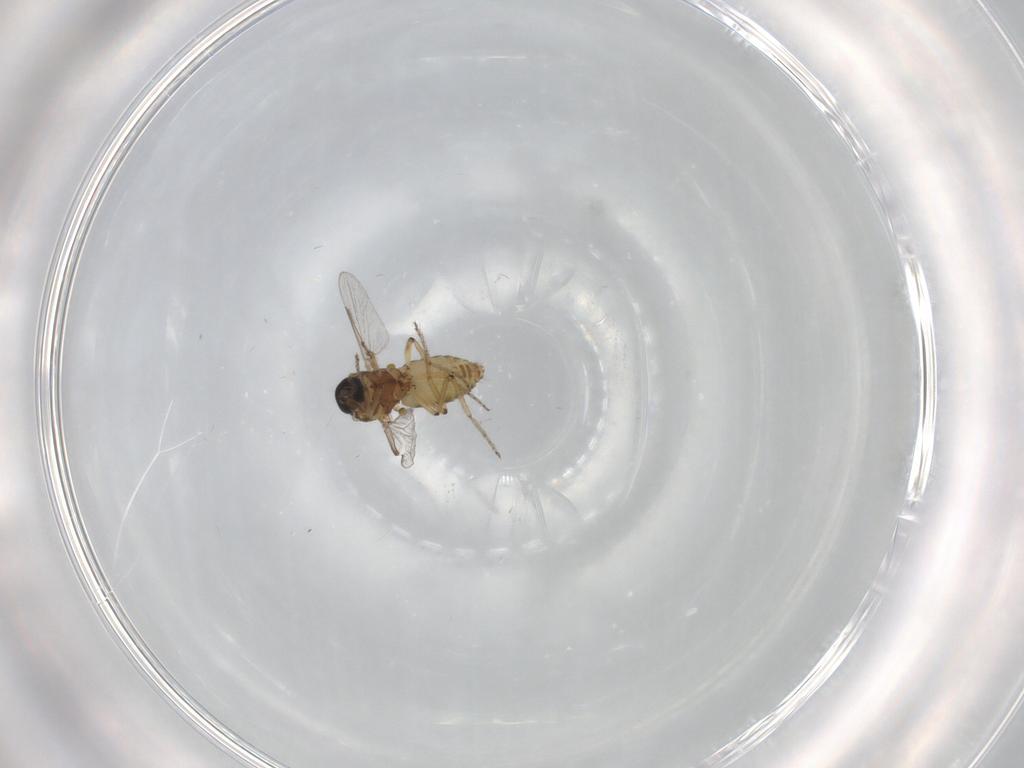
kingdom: Animalia
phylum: Arthropoda
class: Insecta
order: Diptera
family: Ceratopogonidae
